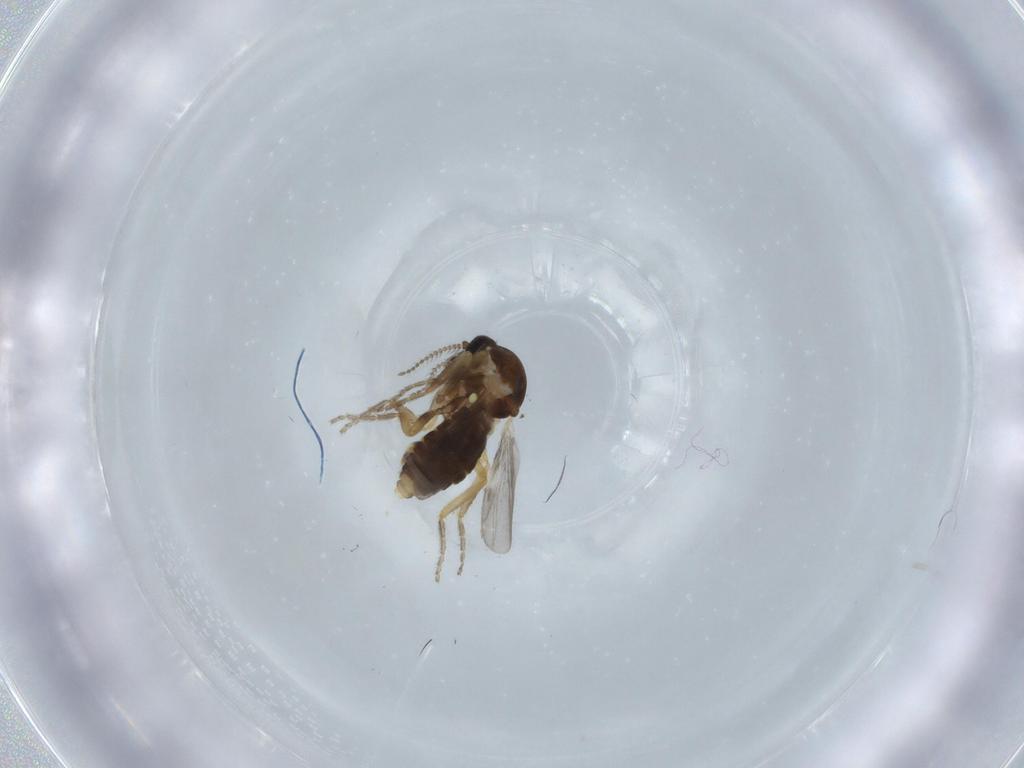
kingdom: Animalia
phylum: Arthropoda
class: Insecta
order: Diptera
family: Ceratopogonidae
